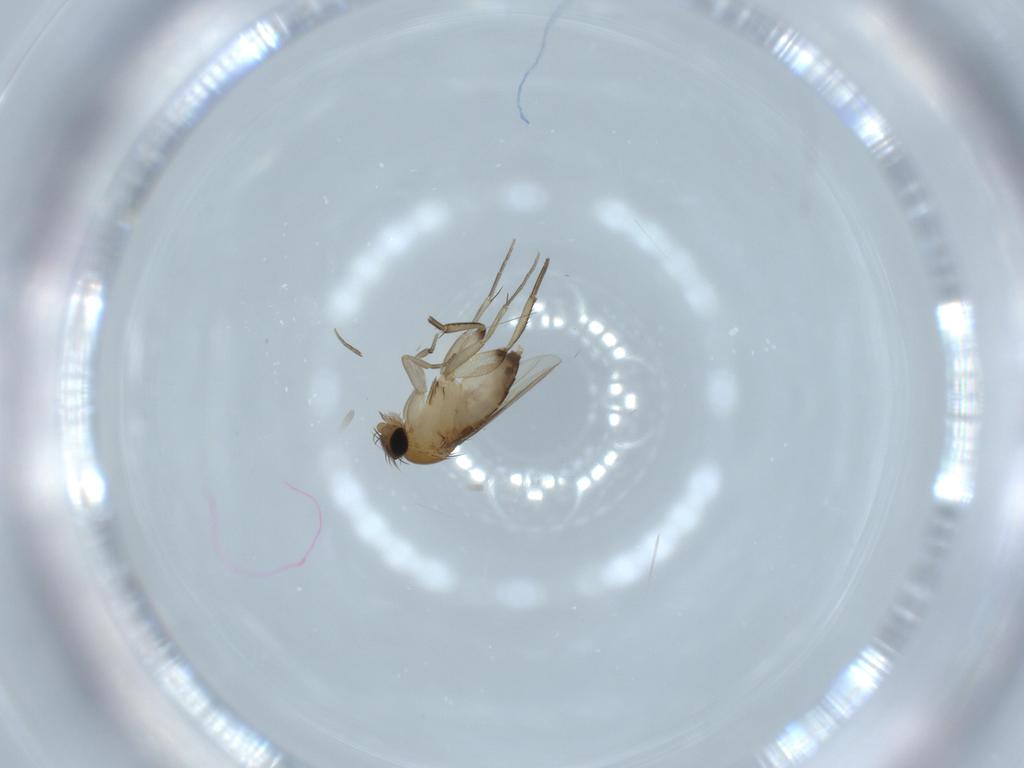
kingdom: Animalia
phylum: Arthropoda
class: Insecta
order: Diptera
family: Phoridae
